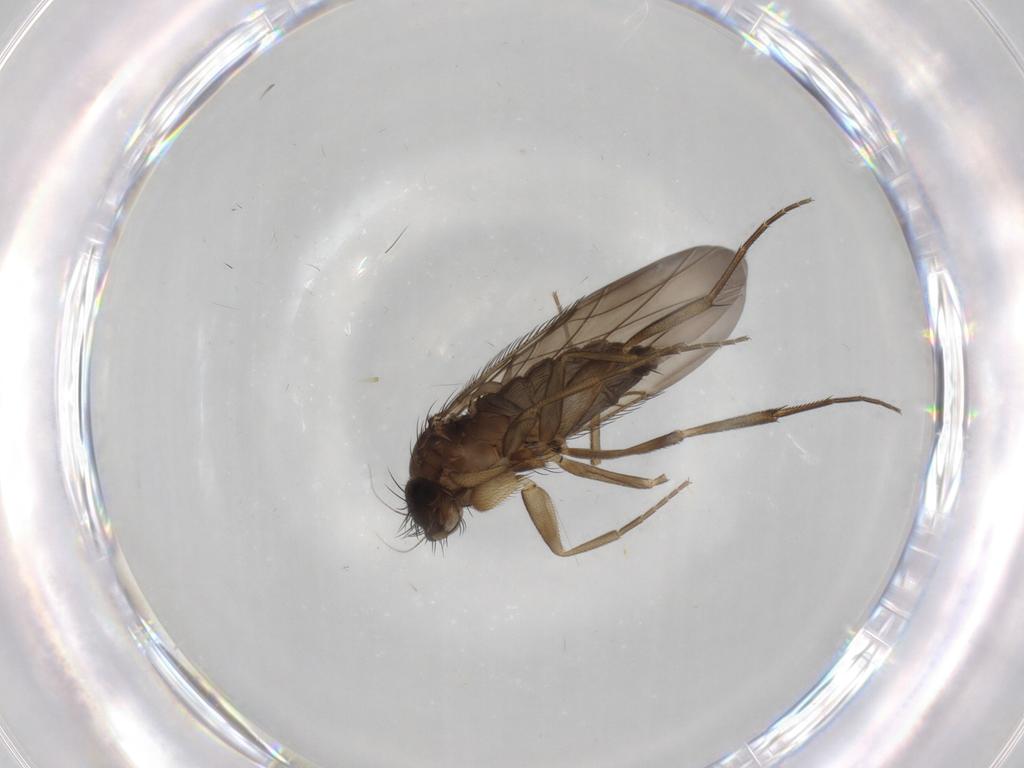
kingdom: Animalia
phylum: Arthropoda
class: Insecta
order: Diptera
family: Phoridae
